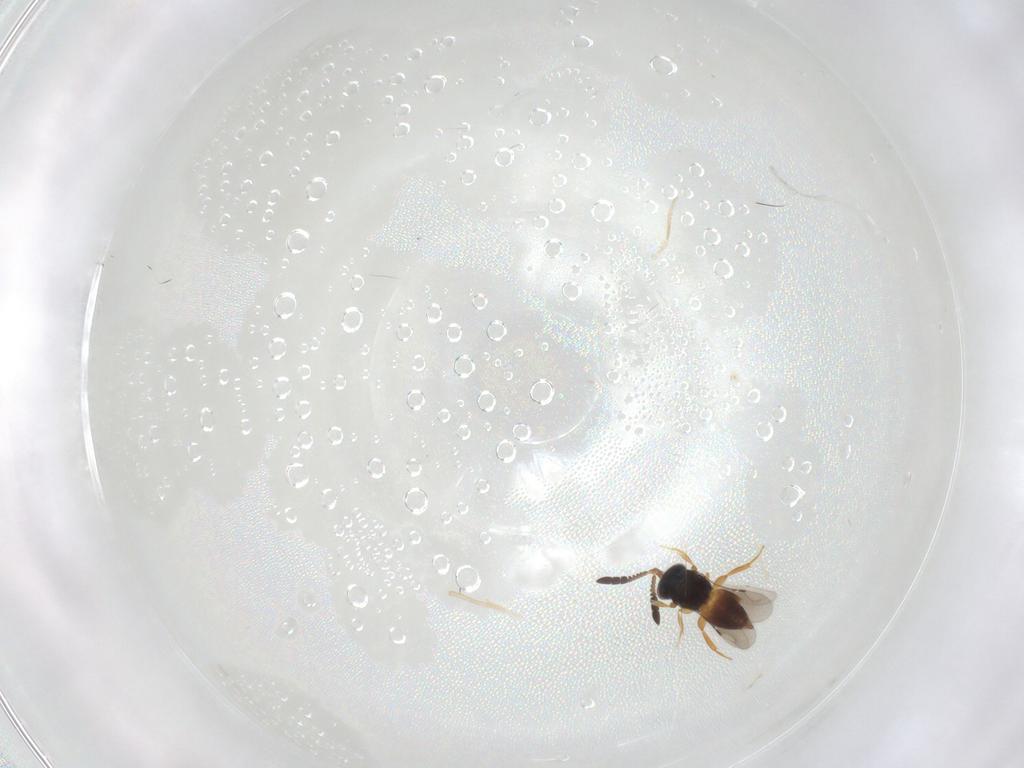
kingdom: Animalia
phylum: Arthropoda
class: Insecta
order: Hymenoptera
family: Ceraphronidae
